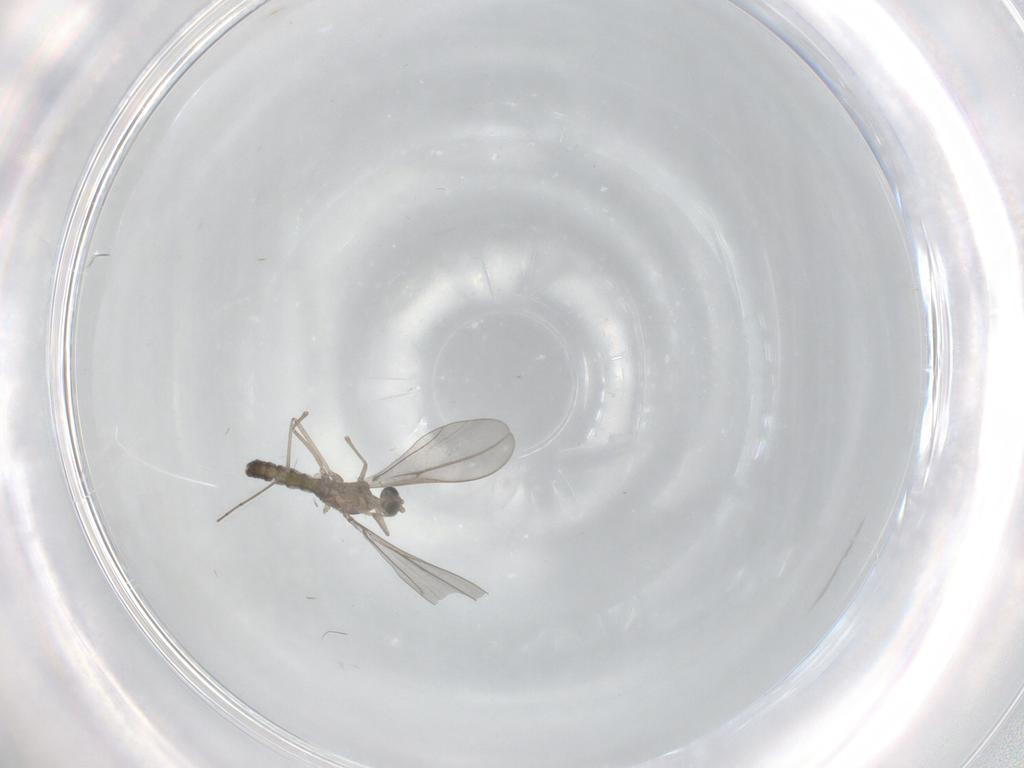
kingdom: Animalia
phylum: Arthropoda
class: Insecta
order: Diptera
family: Cecidomyiidae
